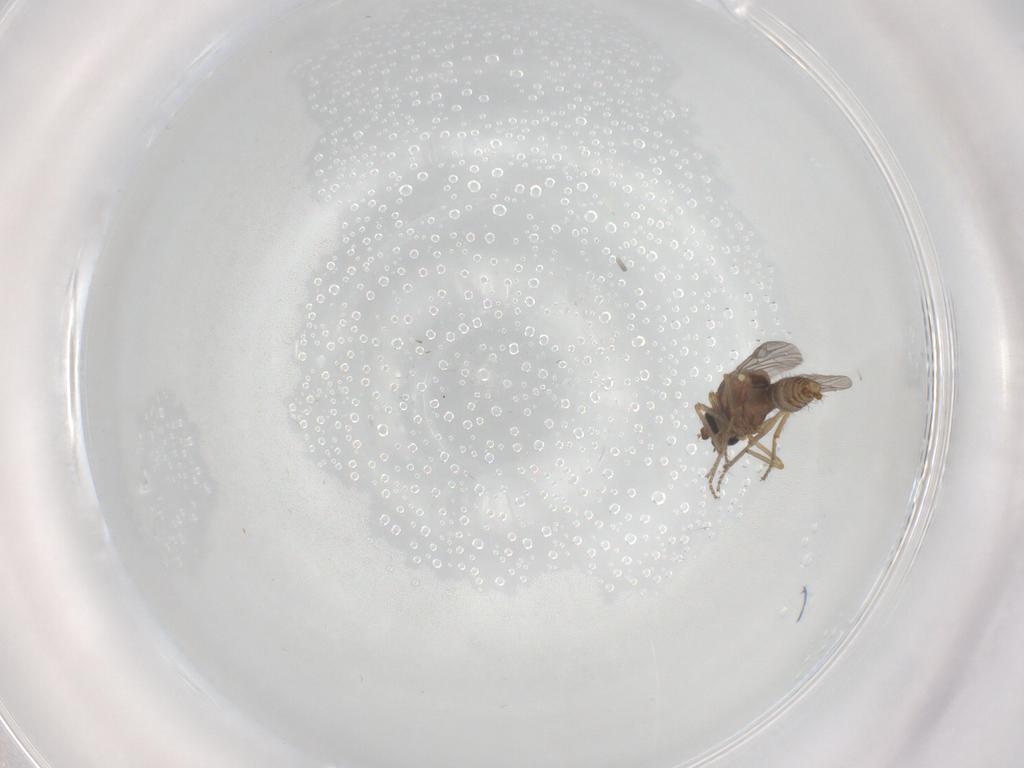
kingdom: Animalia
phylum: Arthropoda
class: Insecta
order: Diptera
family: Ceratopogonidae
